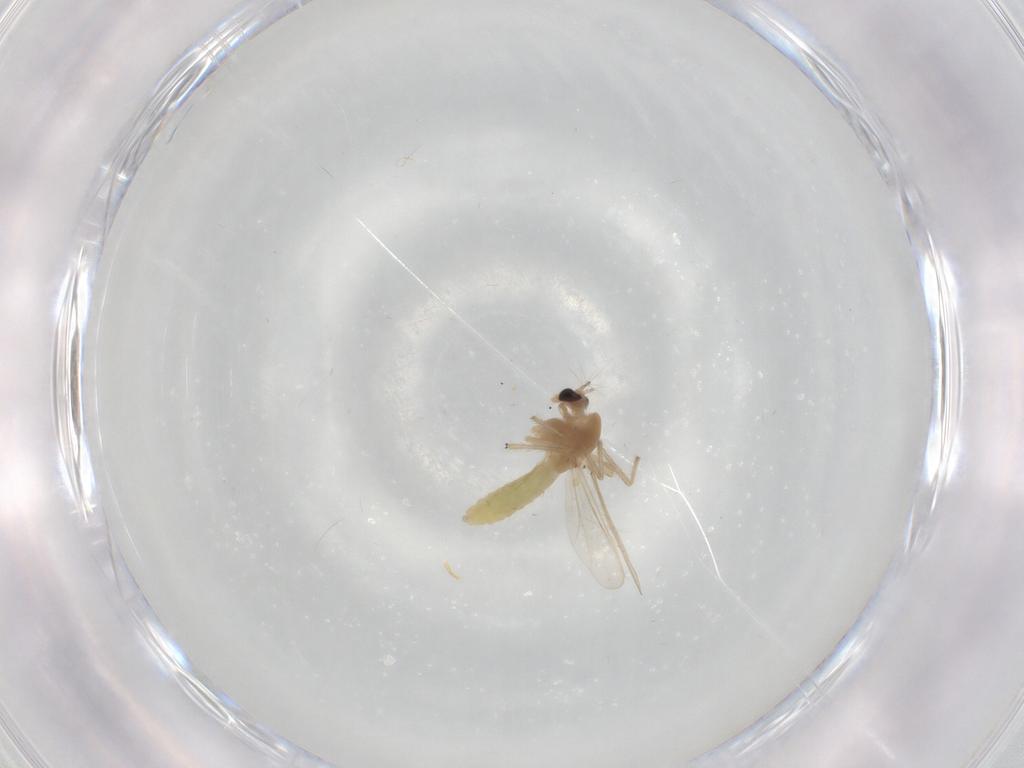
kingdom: Animalia
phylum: Arthropoda
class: Insecta
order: Diptera
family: Chironomidae
